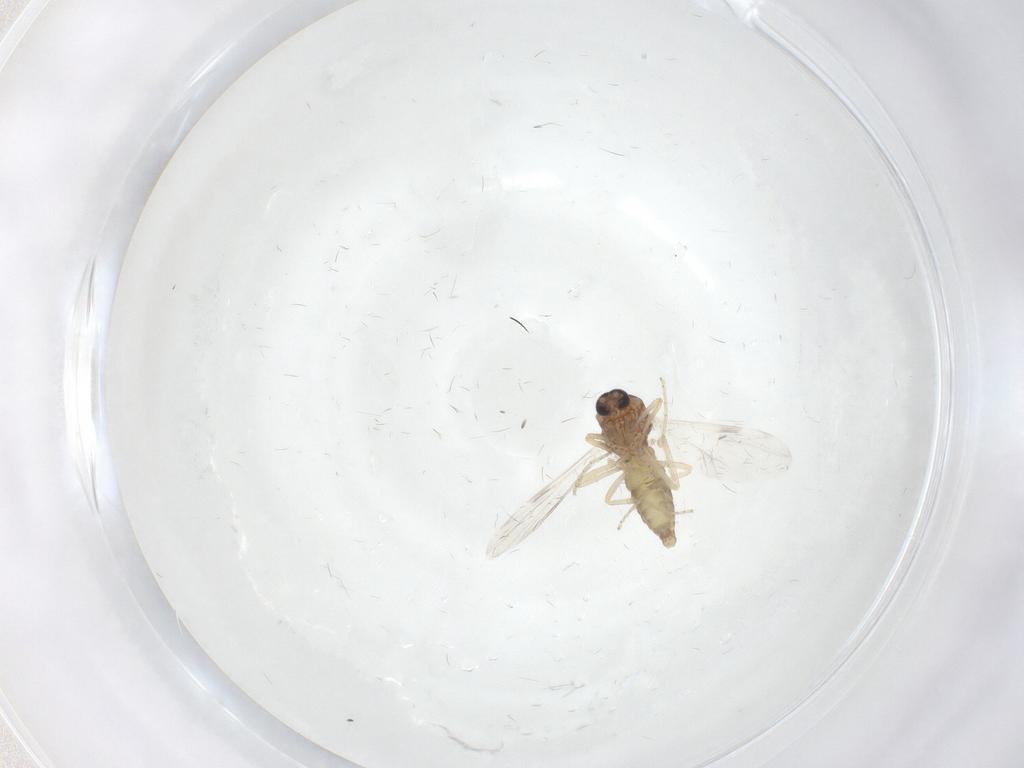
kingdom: Animalia
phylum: Arthropoda
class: Insecta
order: Diptera
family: Ceratopogonidae
